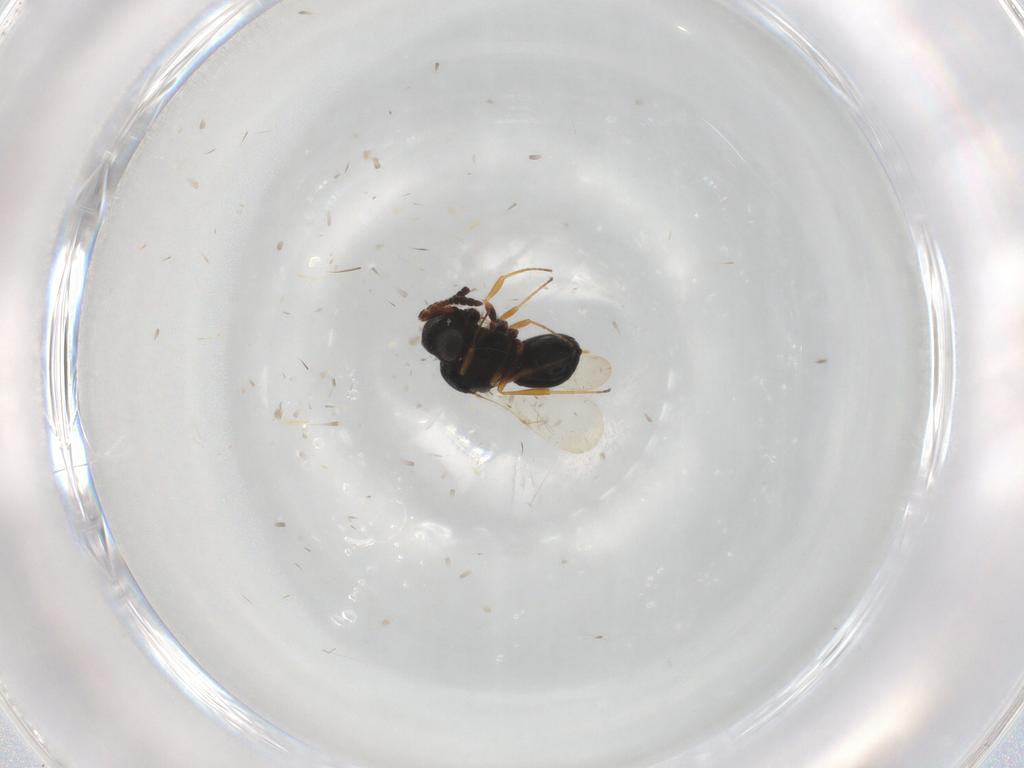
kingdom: Animalia
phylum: Arthropoda
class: Insecta
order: Hymenoptera
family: Scelionidae
